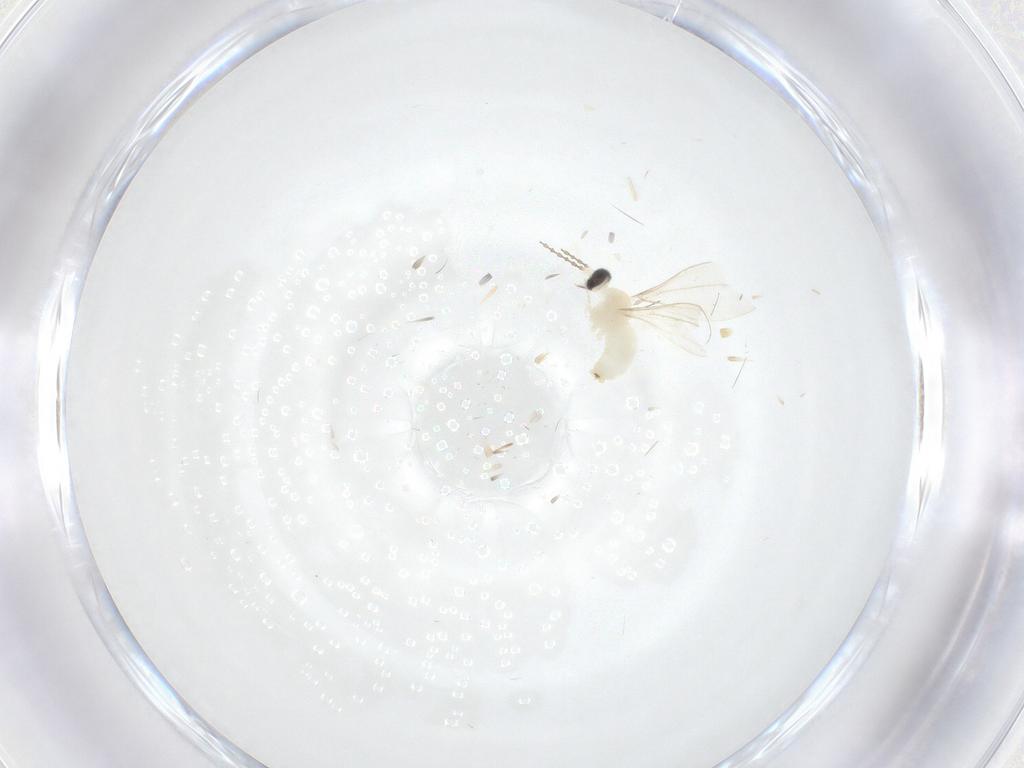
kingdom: Animalia
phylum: Arthropoda
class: Insecta
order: Diptera
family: Cecidomyiidae
